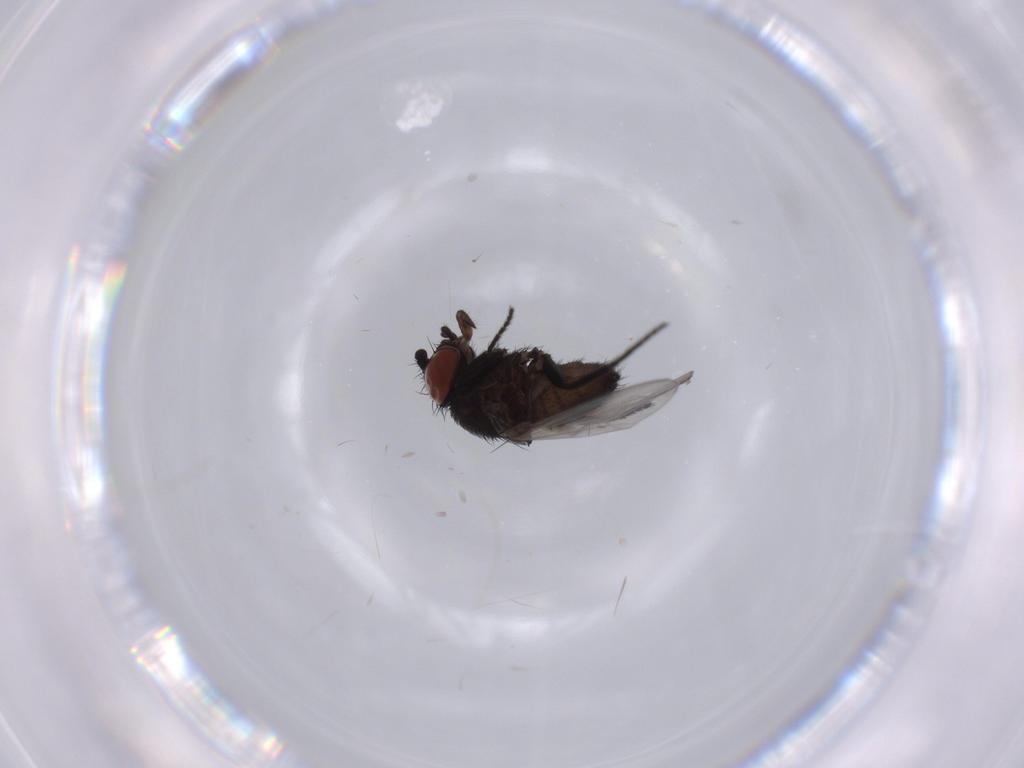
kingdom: Animalia
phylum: Arthropoda
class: Insecta
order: Diptera
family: Milichiidae
